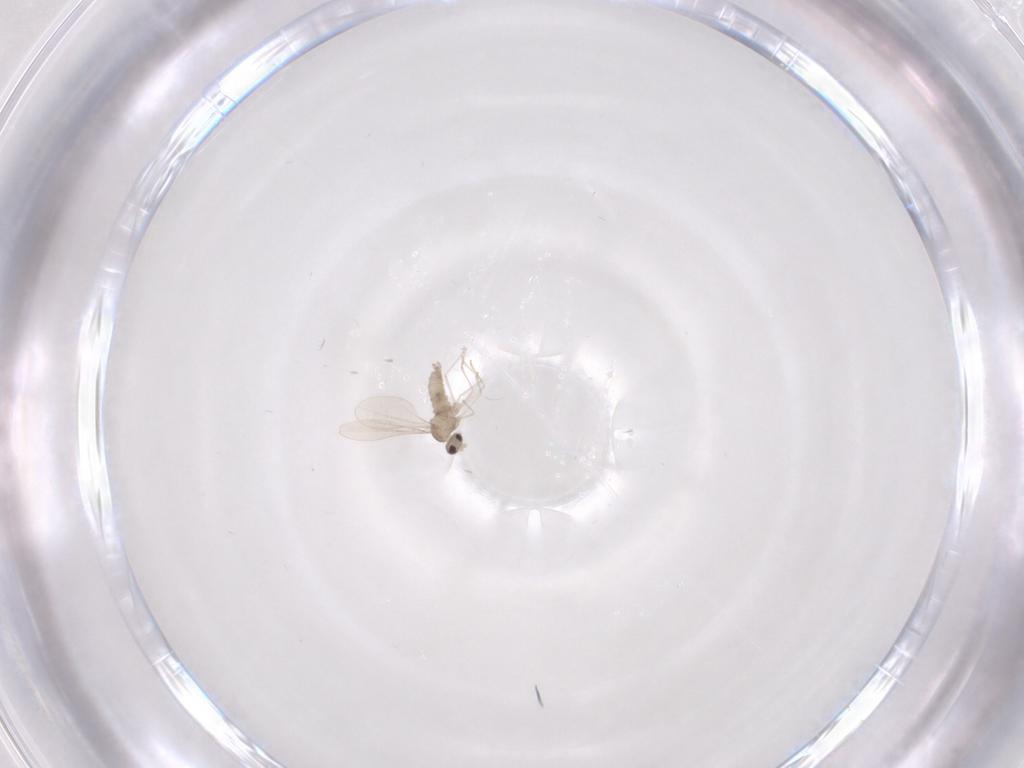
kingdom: Animalia
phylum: Arthropoda
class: Insecta
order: Diptera
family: Cecidomyiidae
